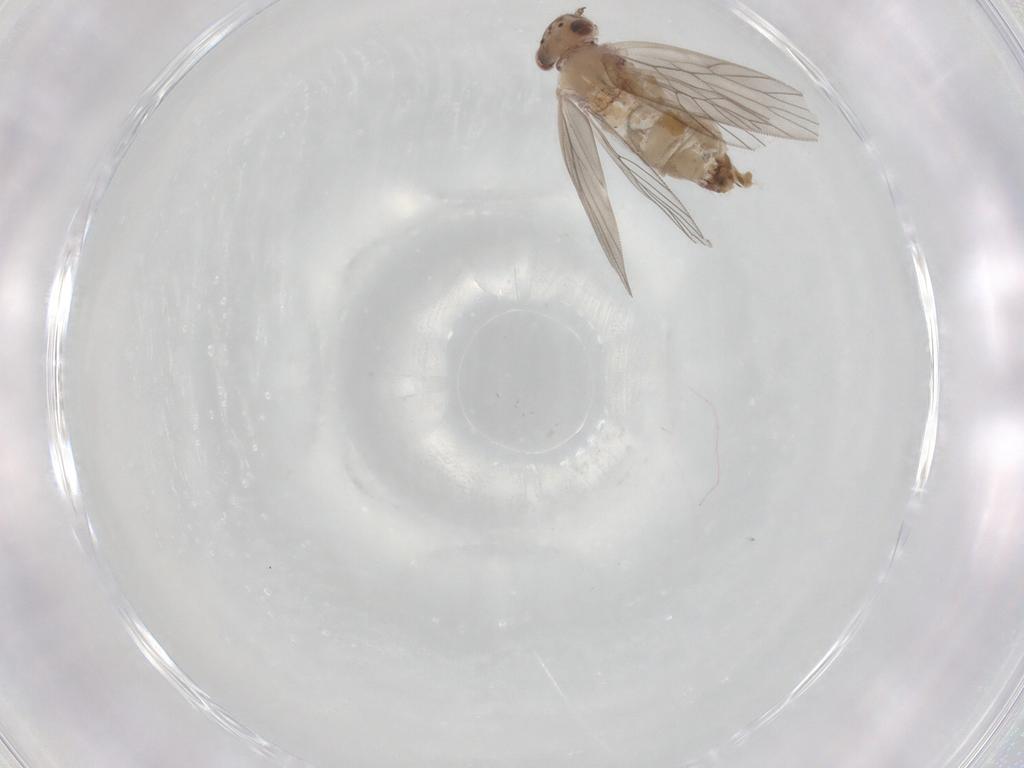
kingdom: Animalia
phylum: Arthropoda
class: Insecta
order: Psocodea
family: Lepidopsocidae
